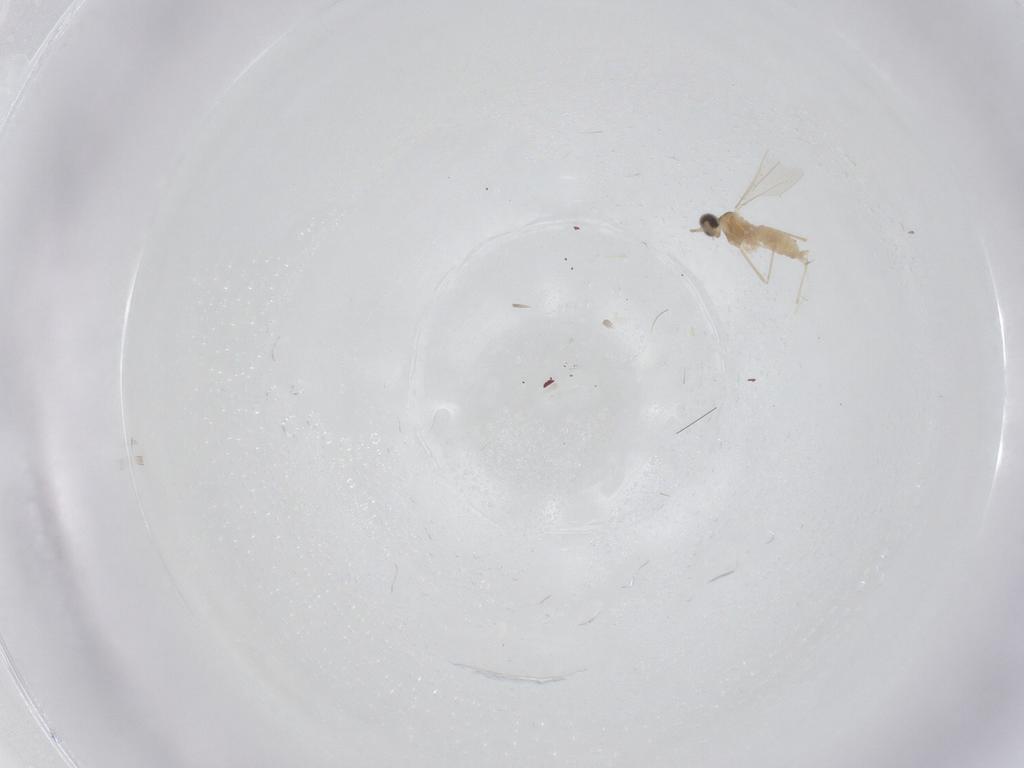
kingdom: Animalia
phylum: Arthropoda
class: Insecta
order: Diptera
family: Cecidomyiidae
